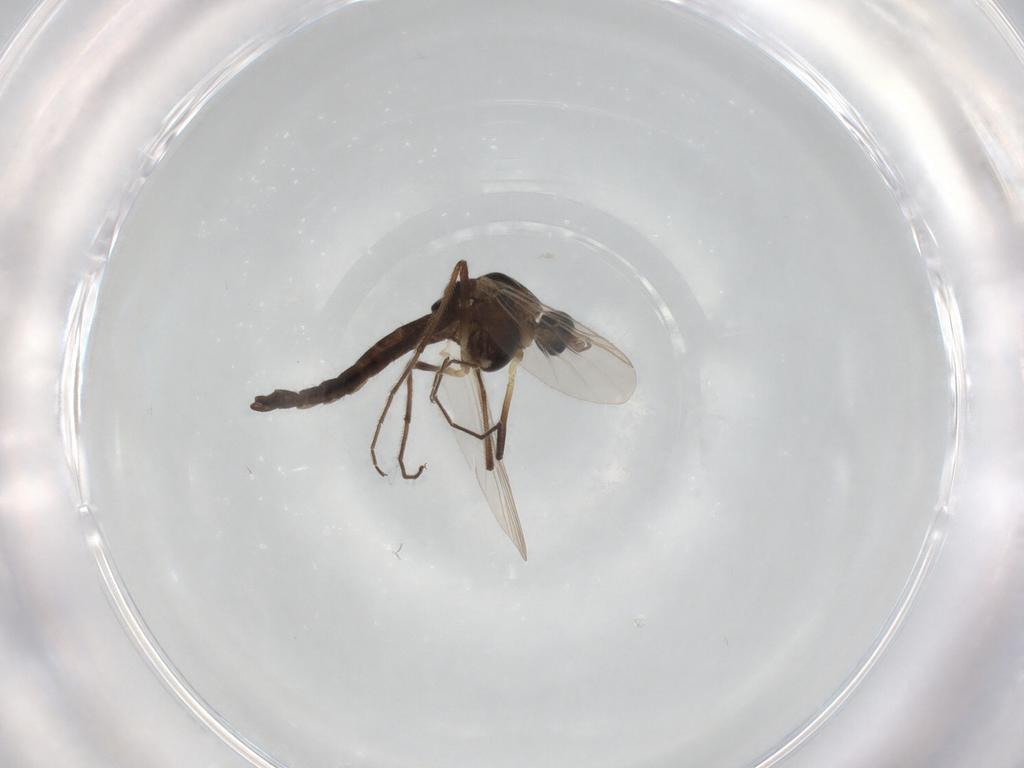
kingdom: Animalia
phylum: Arthropoda
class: Insecta
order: Diptera
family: Chironomidae
